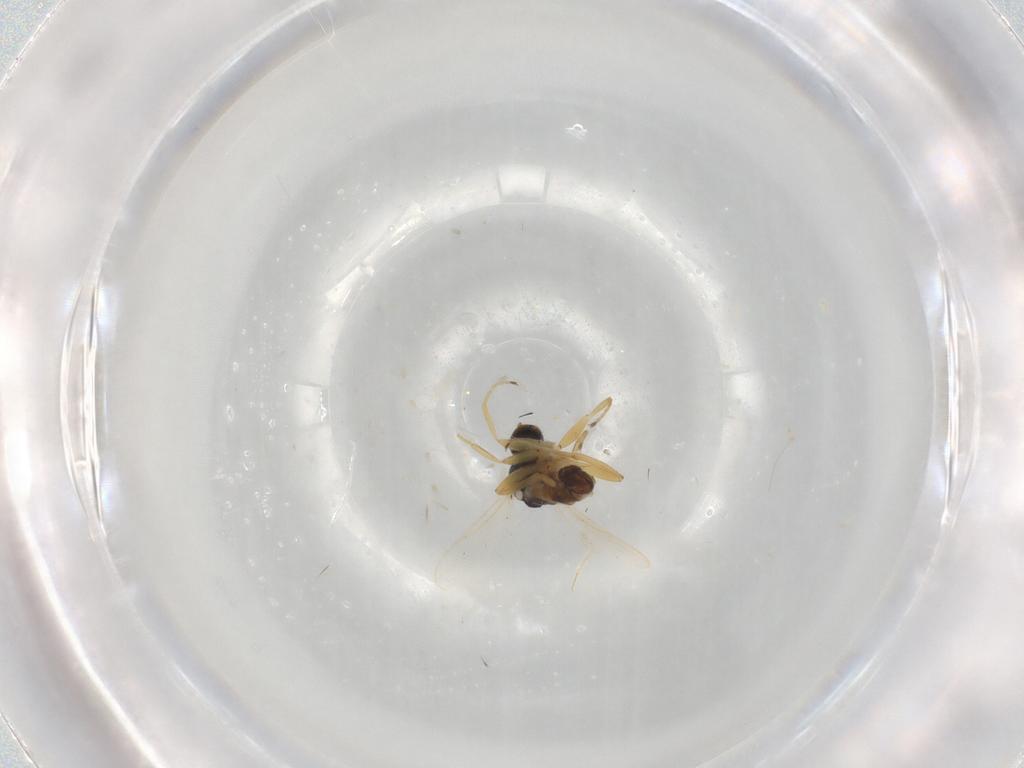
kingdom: Animalia
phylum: Arthropoda
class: Insecta
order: Diptera
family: Hybotidae
